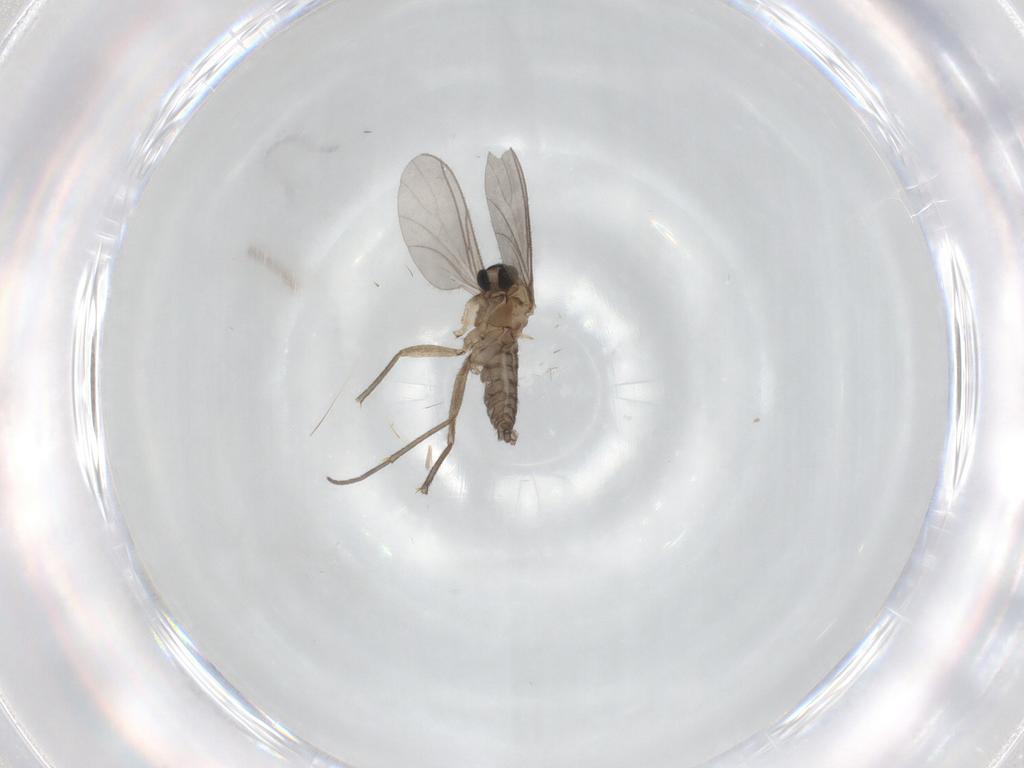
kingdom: Animalia
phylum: Arthropoda
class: Insecta
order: Diptera
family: Sciaridae
